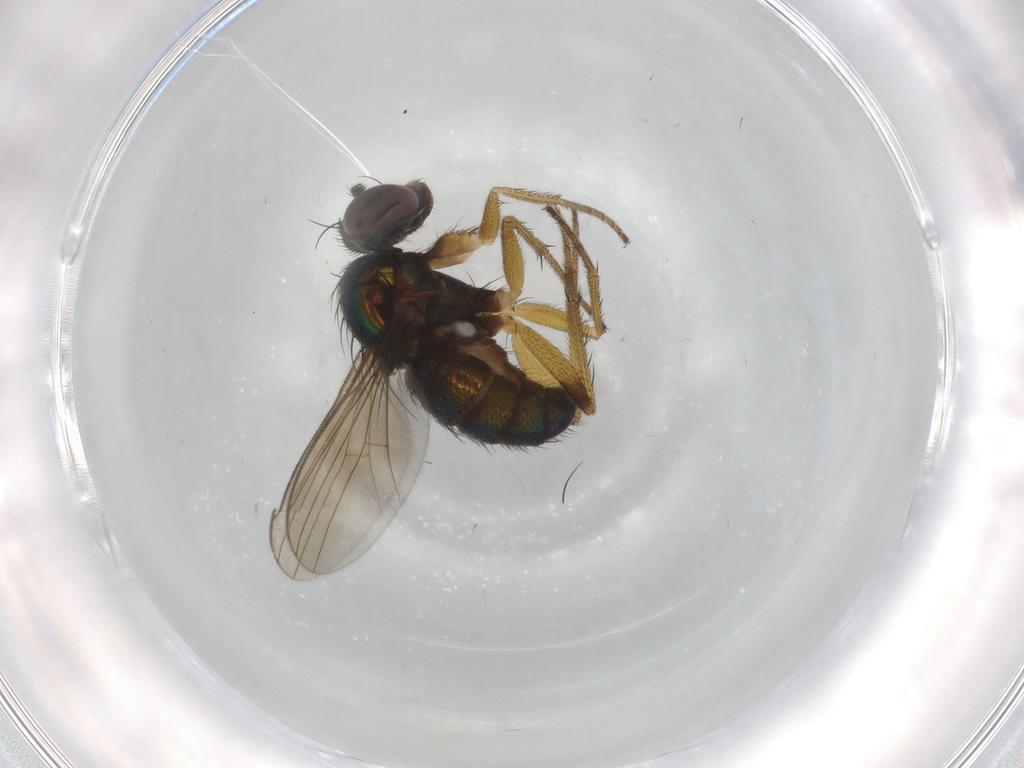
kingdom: Animalia
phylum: Arthropoda
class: Insecta
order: Diptera
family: Dolichopodidae
